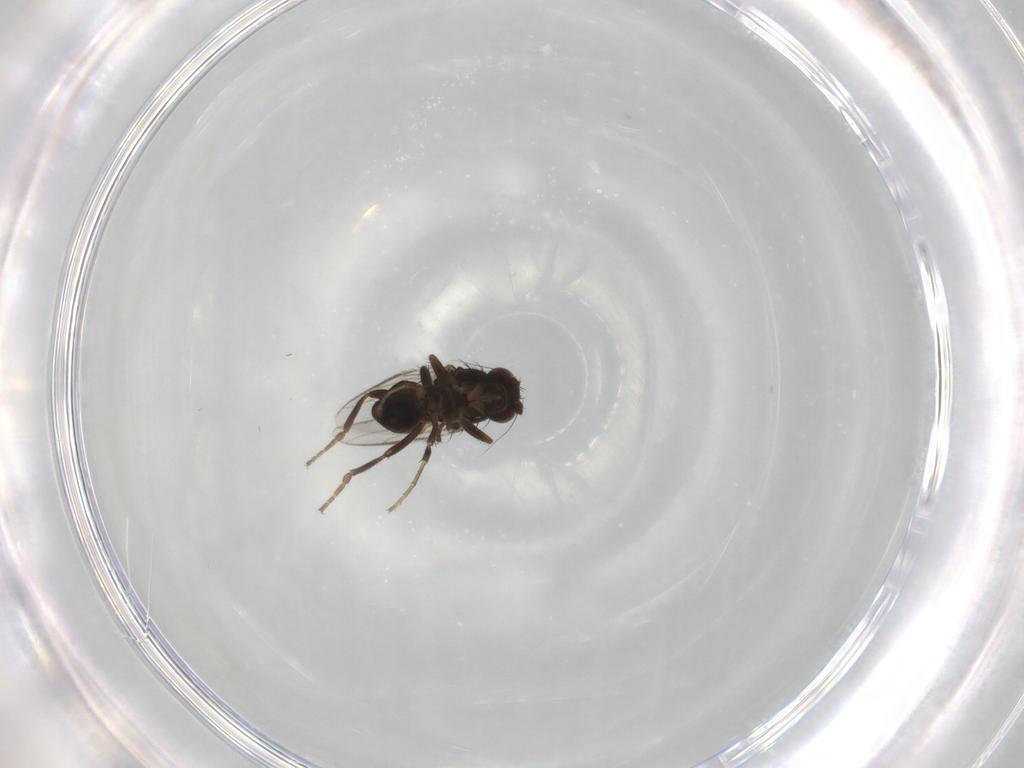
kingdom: Animalia
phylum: Arthropoda
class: Insecta
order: Diptera
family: Sphaeroceridae
